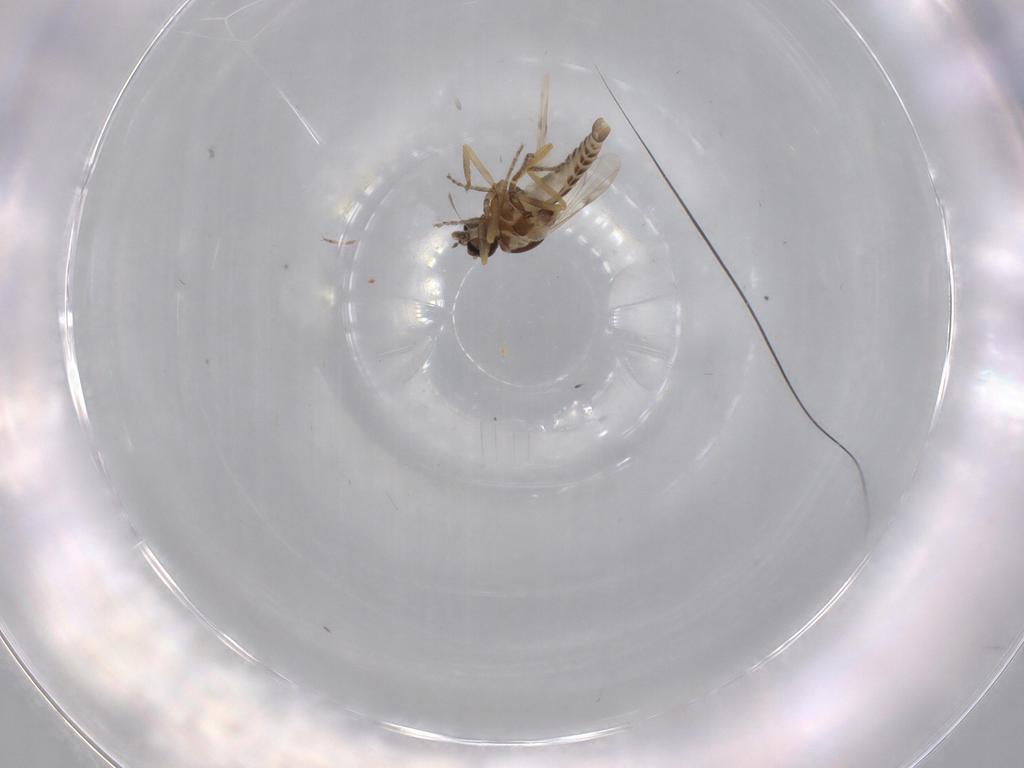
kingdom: Animalia
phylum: Arthropoda
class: Insecta
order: Diptera
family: Ceratopogonidae
